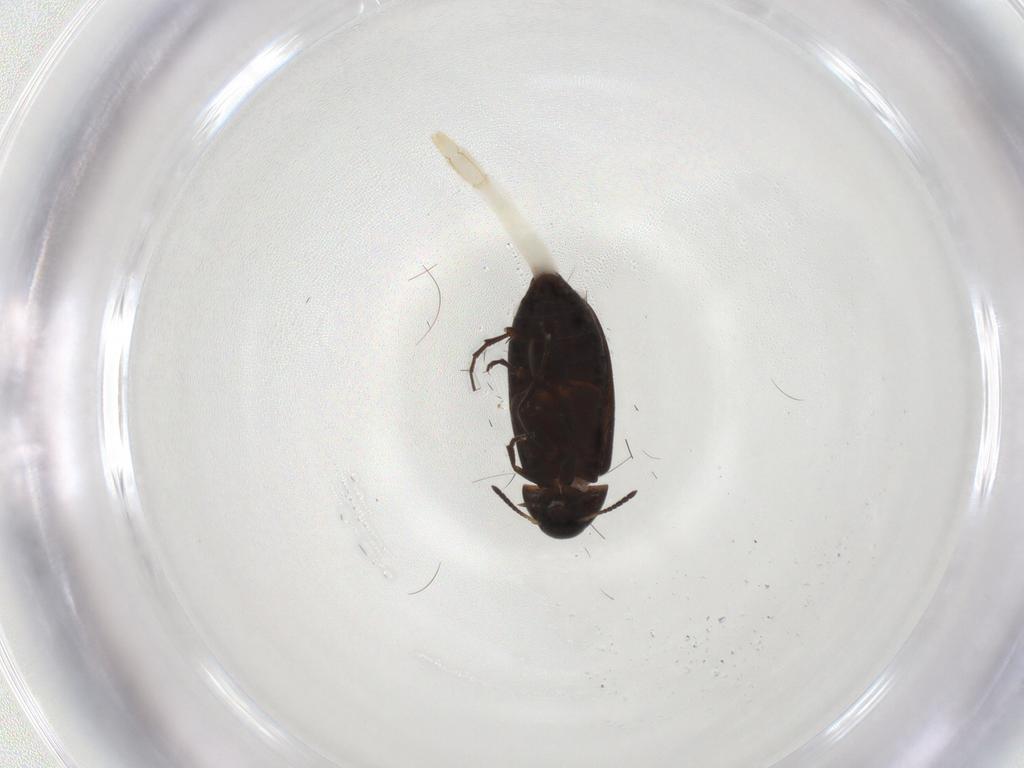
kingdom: Animalia
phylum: Arthropoda
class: Insecta
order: Coleoptera
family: Scraptiidae
